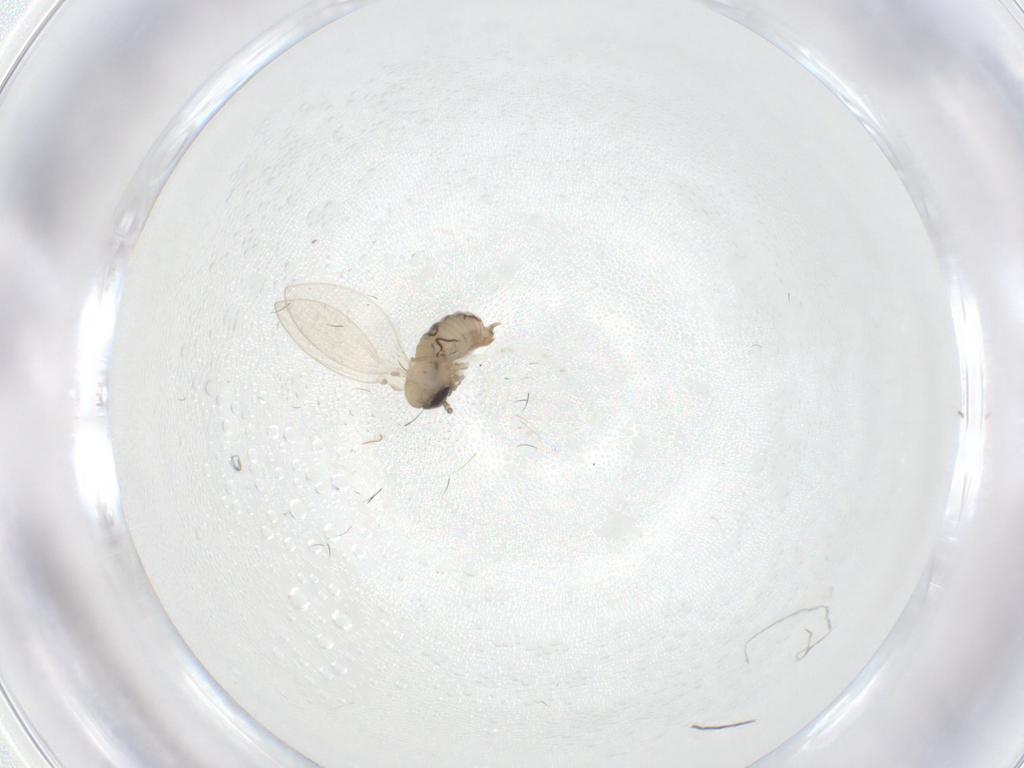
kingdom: Animalia
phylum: Arthropoda
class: Insecta
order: Diptera
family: Cecidomyiidae
